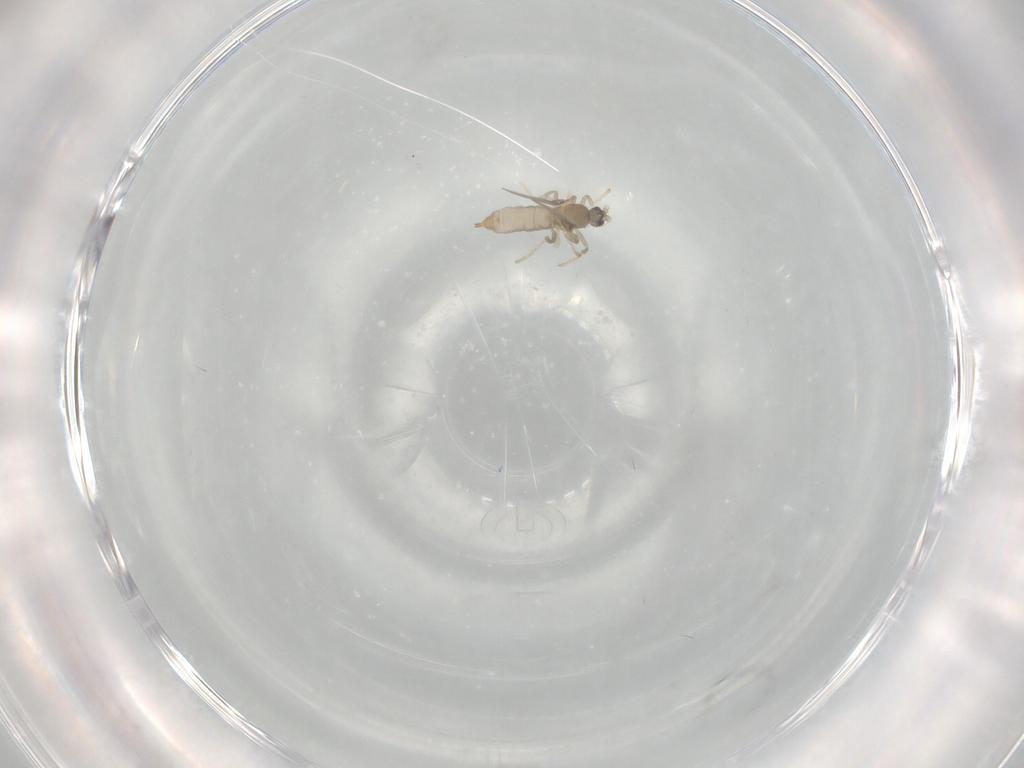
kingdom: Animalia
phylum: Arthropoda
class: Insecta
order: Diptera
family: Cecidomyiidae
